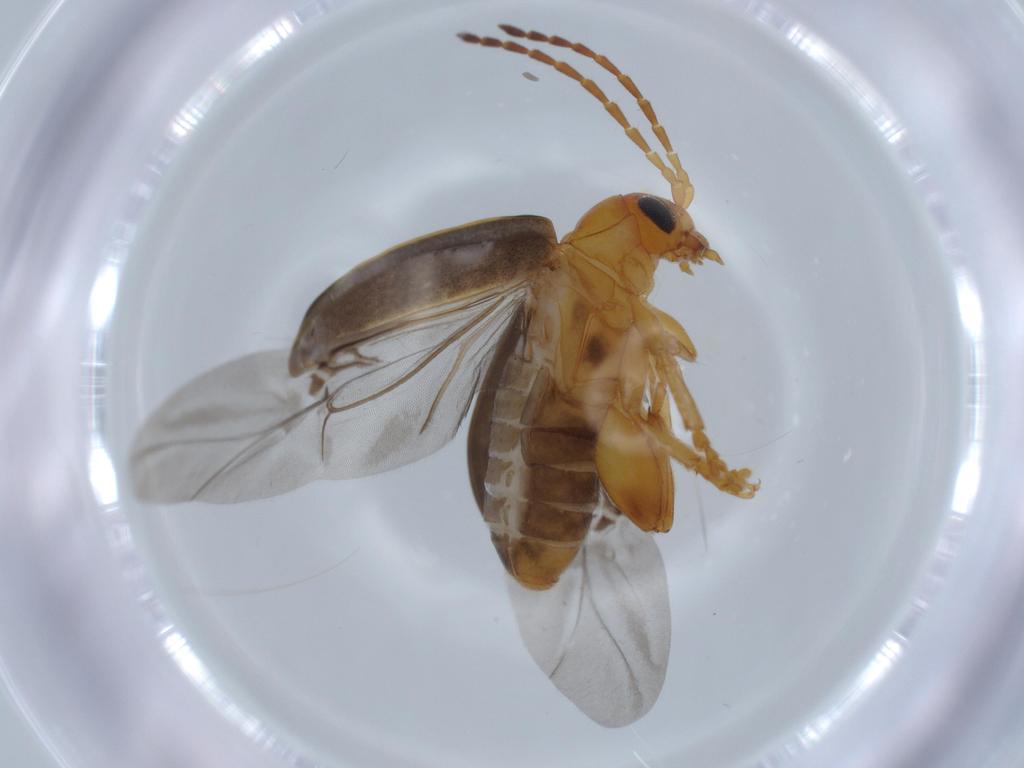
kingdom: Animalia
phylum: Arthropoda
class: Insecta
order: Coleoptera
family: Chrysomelidae
